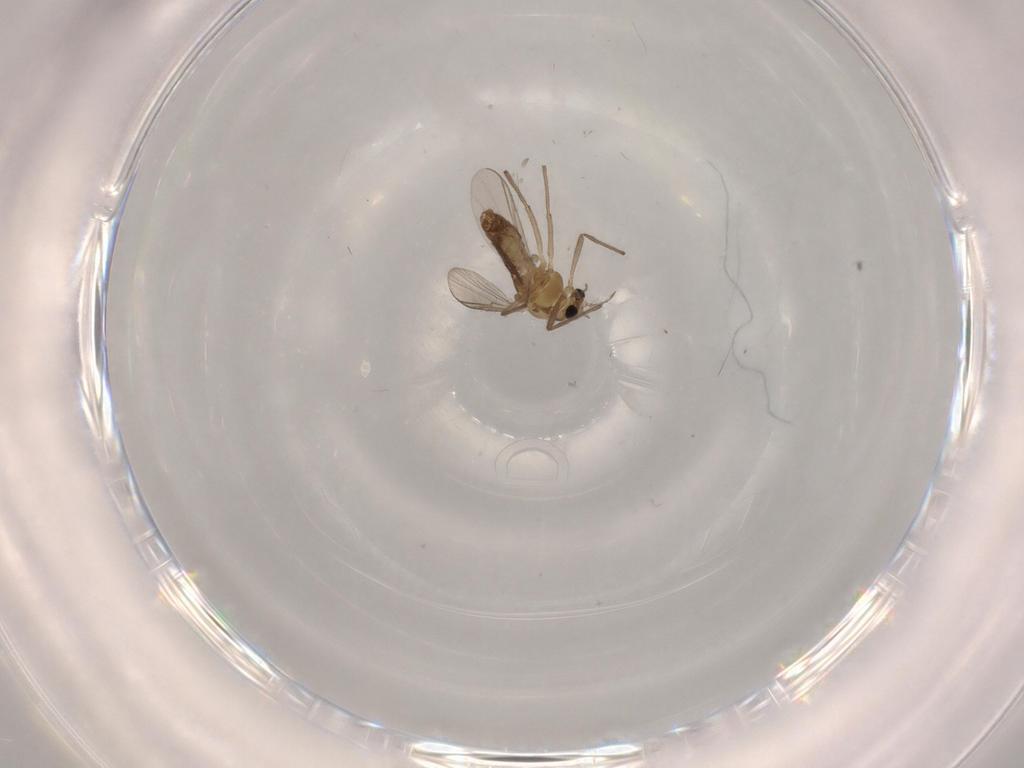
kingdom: Animalia
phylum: Arthropoda
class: Insecta
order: Diptera
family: Chironomidae
